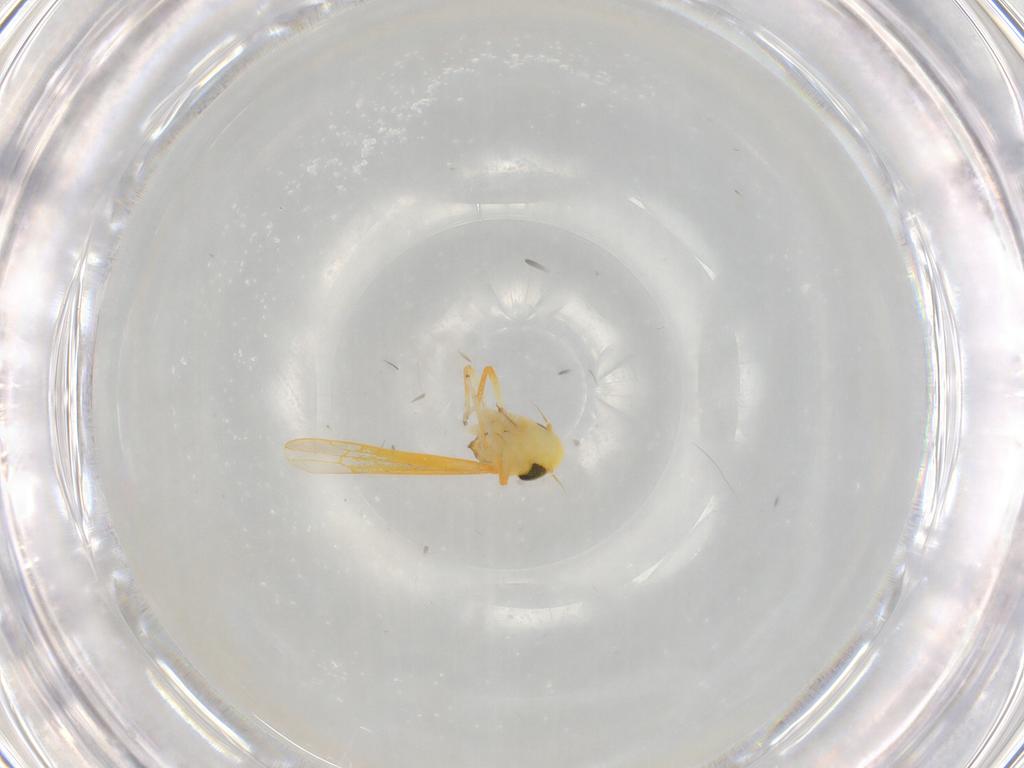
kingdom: Animalia
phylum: Arthropoda
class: Insecta
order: Hemiptera
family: Cicadellidae
